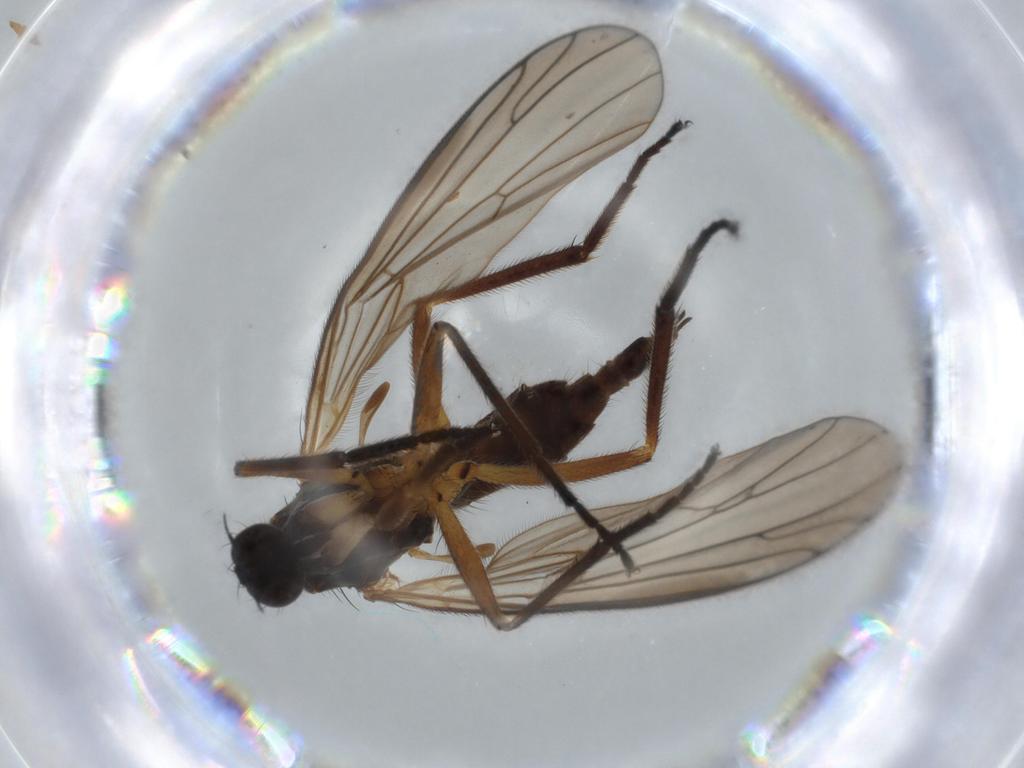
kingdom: Animalia
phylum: Arthropoda
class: Insecta
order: Diptera
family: Empididae
